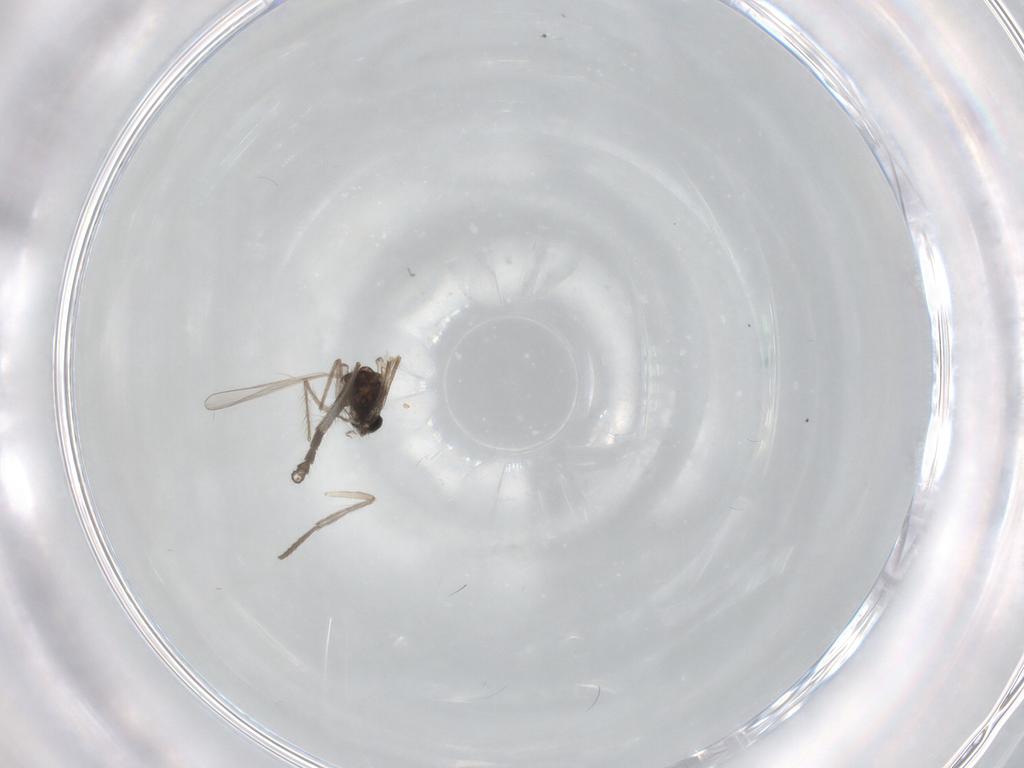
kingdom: Animalia
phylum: Arthropoda
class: Insecta
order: Diptera
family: Chironomidae
